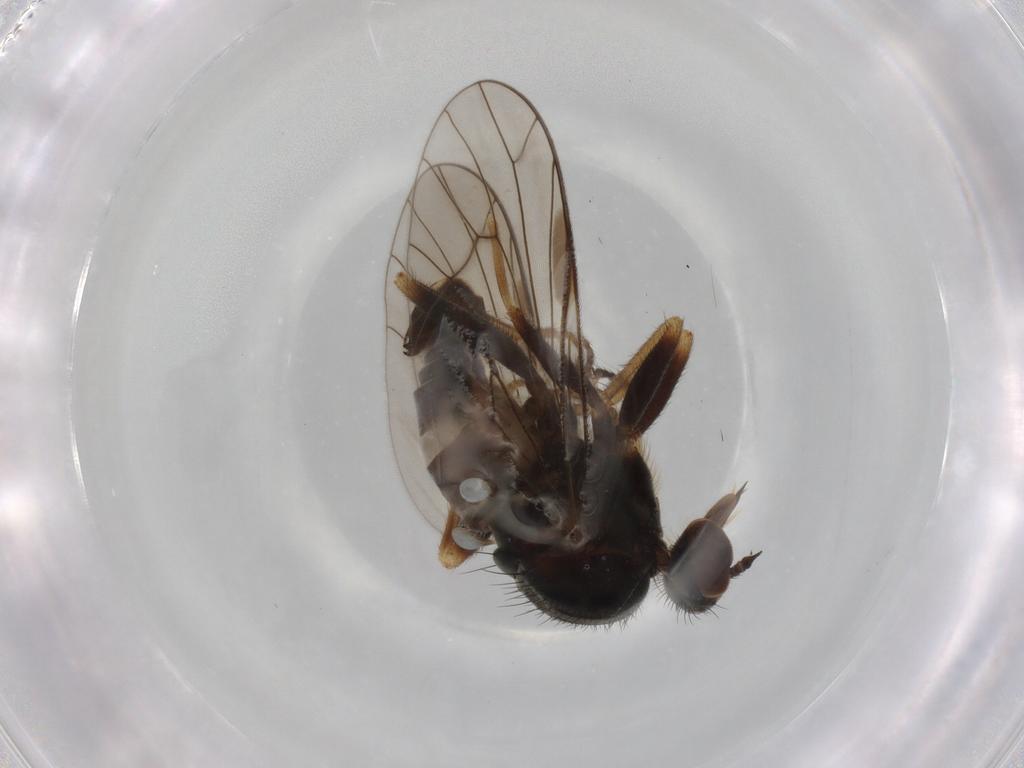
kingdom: Animalia
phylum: Arthropoda
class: Insecta
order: Diptera
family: Empididae
